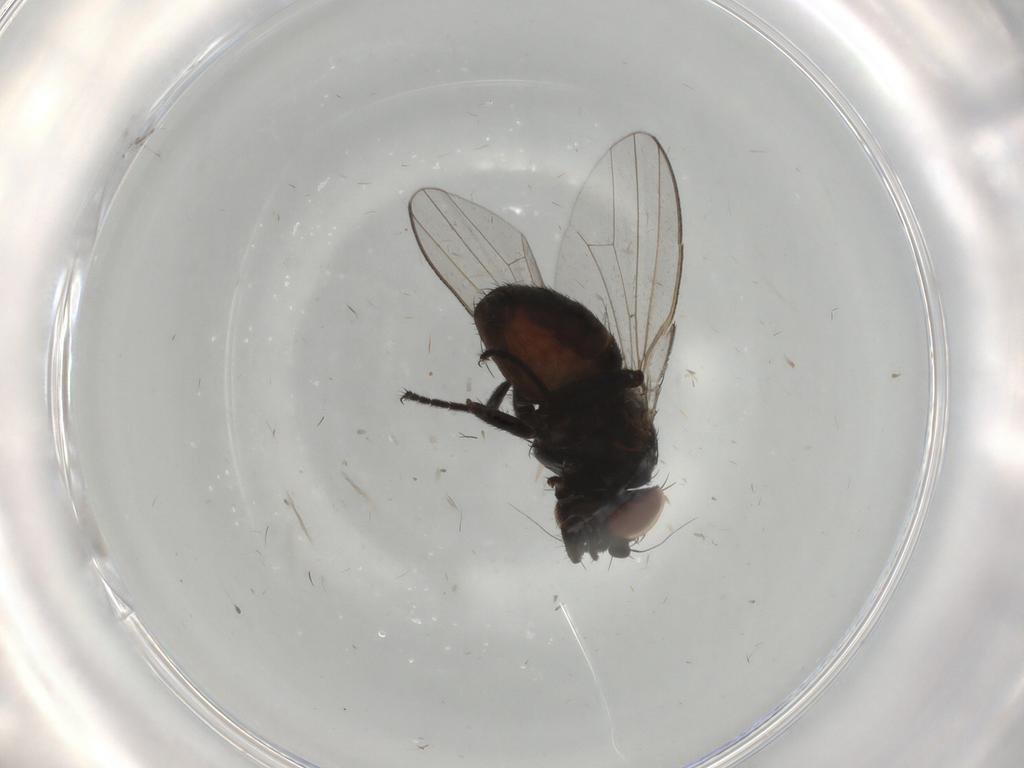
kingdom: Animalia
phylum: Arthropoda
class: Insecta
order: Diptera
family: Milichiidae
